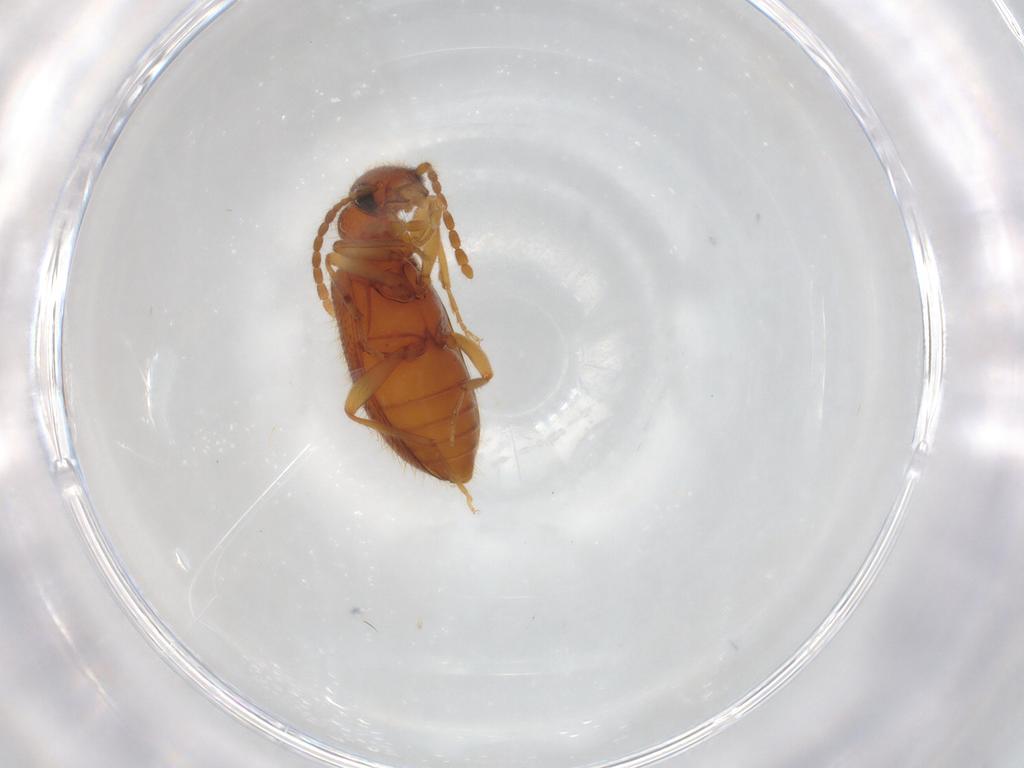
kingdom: Animalia
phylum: Arthropoda
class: Insecta
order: Coleoptera
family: Anthicidae
